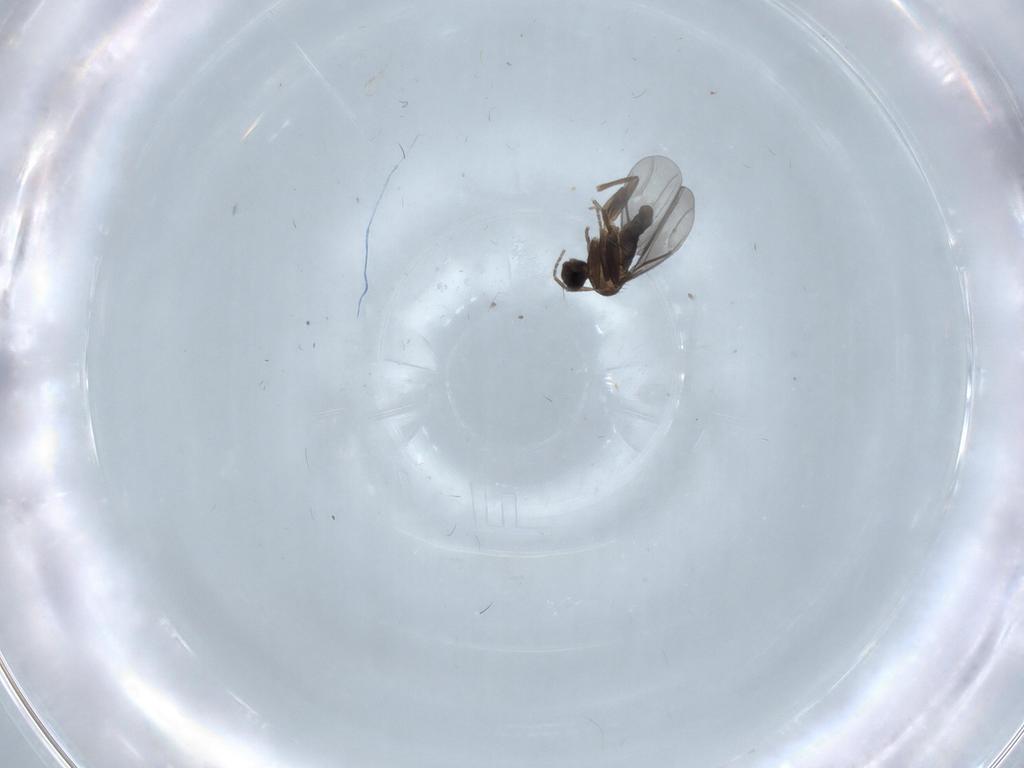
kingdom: Animalia
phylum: Arthropoda
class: Insecta
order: Diptera
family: Phoridae
